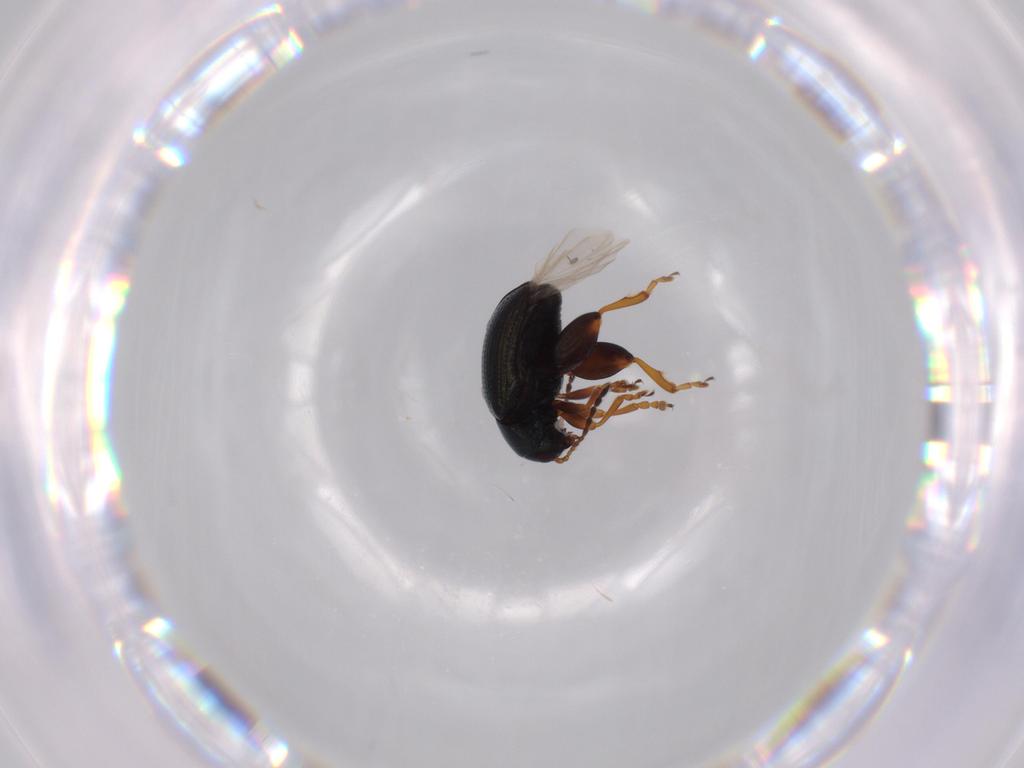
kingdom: Animalia
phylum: Arthropoda
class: Insecta
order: Coleoptera
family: Chrysomelidae
